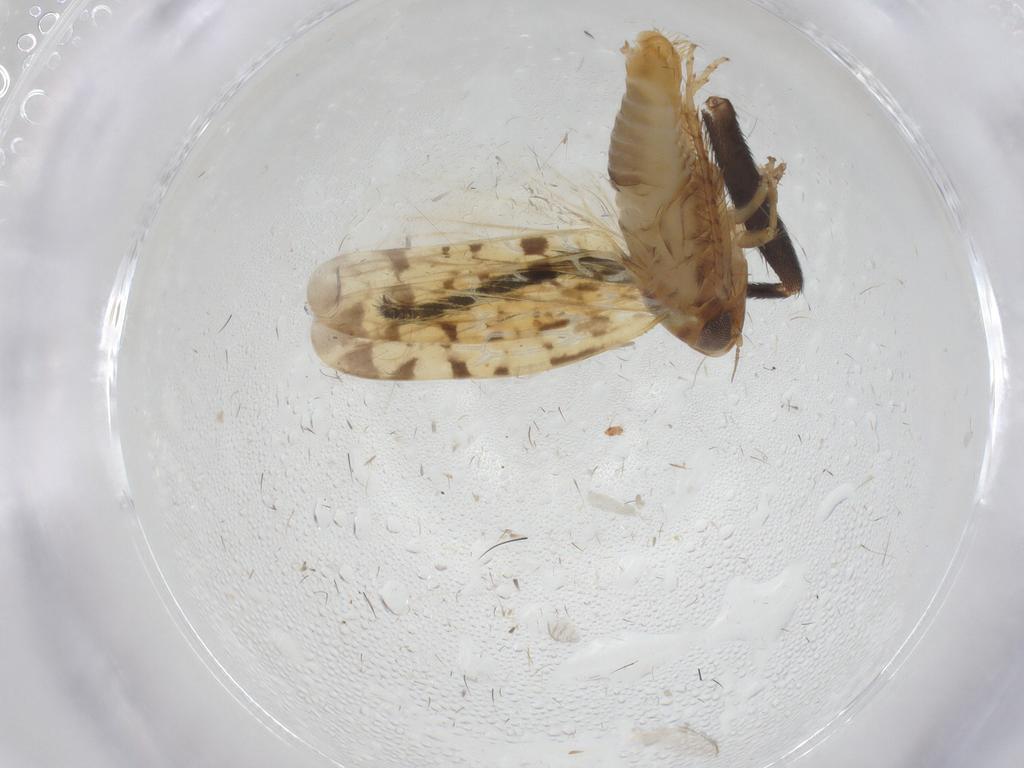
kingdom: Animalia
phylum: Arthropoda
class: Insecta
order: Hemiptera
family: Cicadellidae
